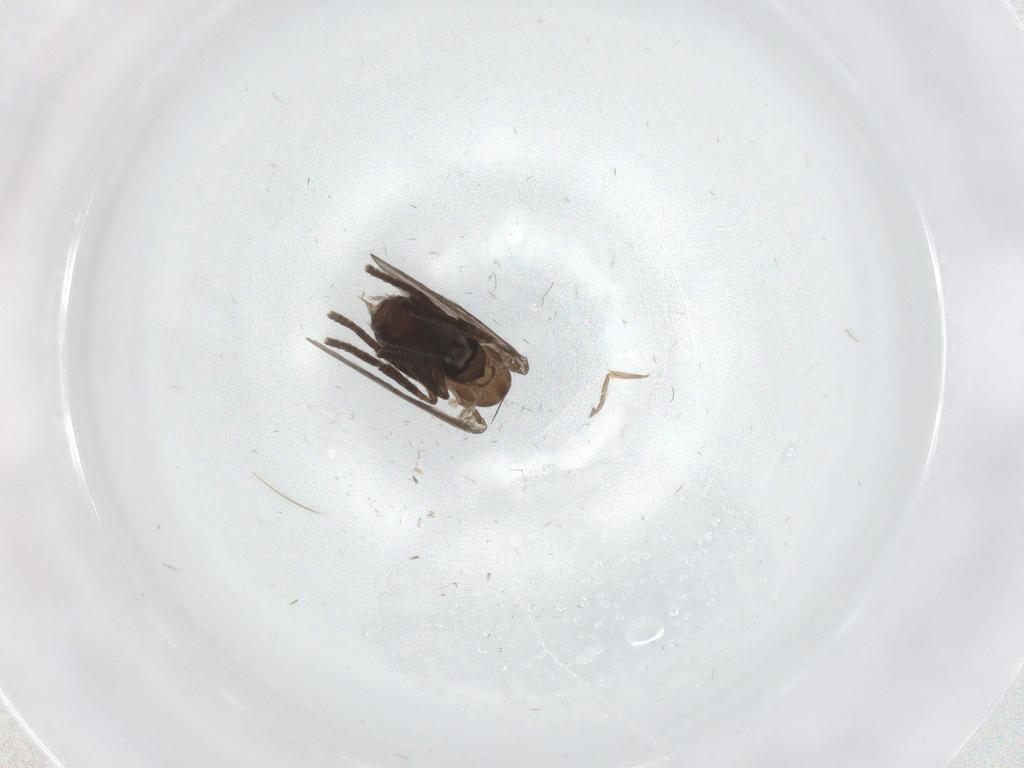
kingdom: Animalia
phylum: Arthropoda
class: Insecta
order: Diptera
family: Psychodidae
